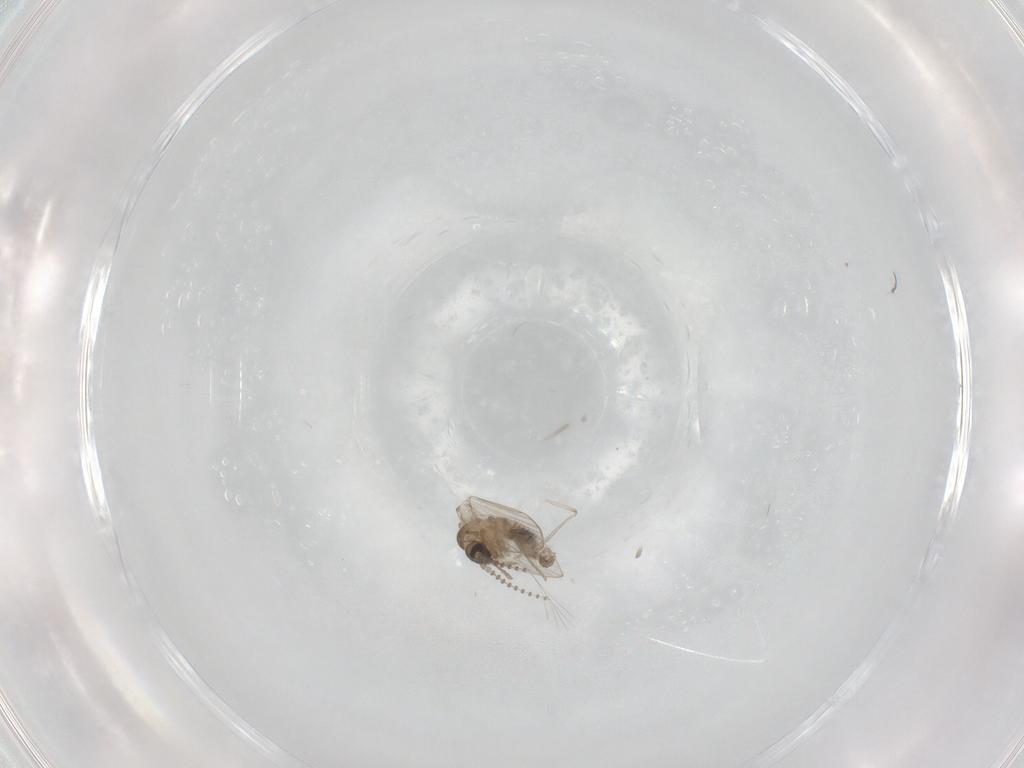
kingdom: Animalia
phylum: Arthropoda
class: Insecta
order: Diptera
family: Psychodidae
